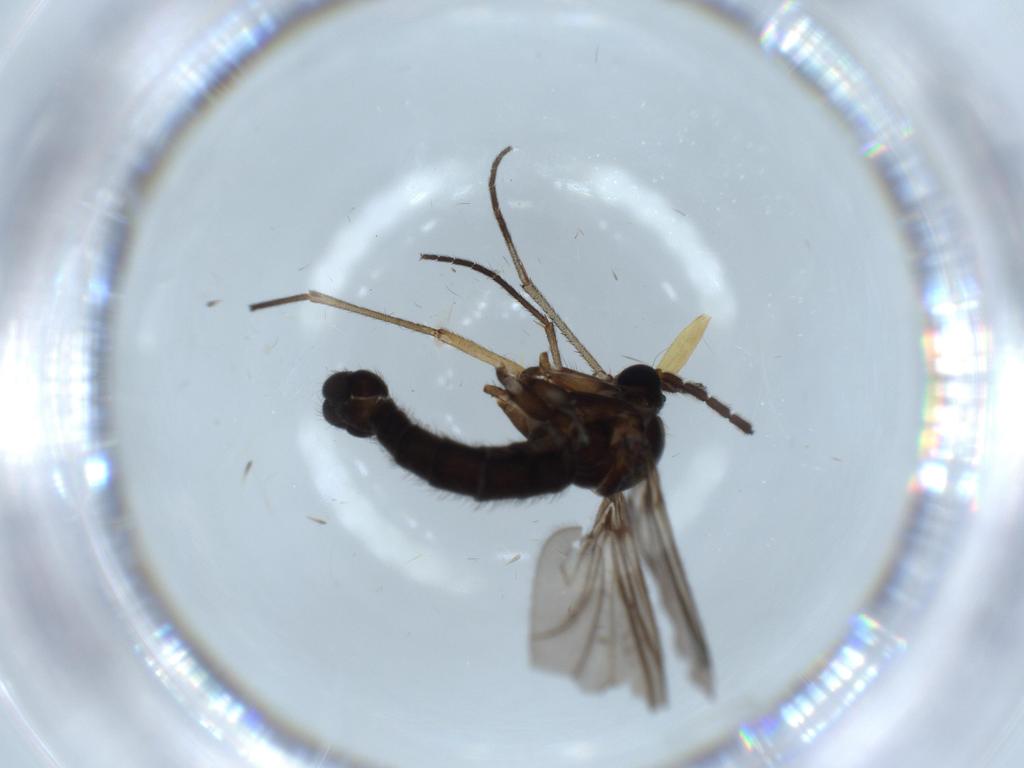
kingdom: Animalia
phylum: Arthropoda
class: Insecta
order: Diptera
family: Sciaridae
